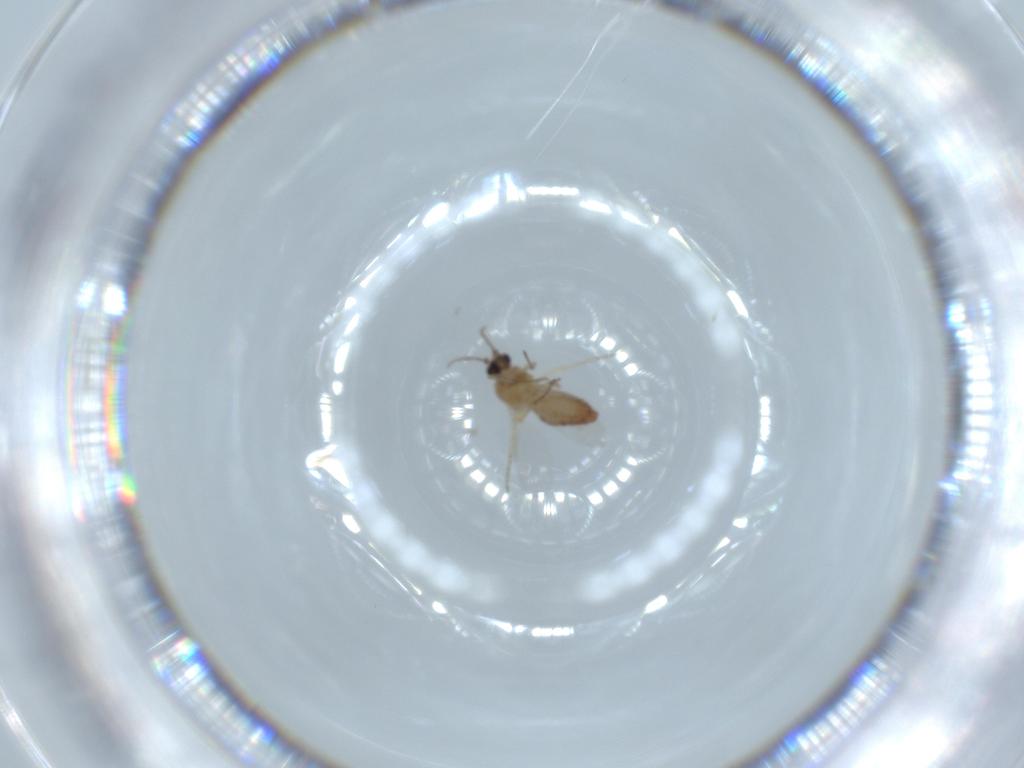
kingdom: Animalia
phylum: Arthropoda
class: Insecta
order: Diptera
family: Ceratopogonidae
